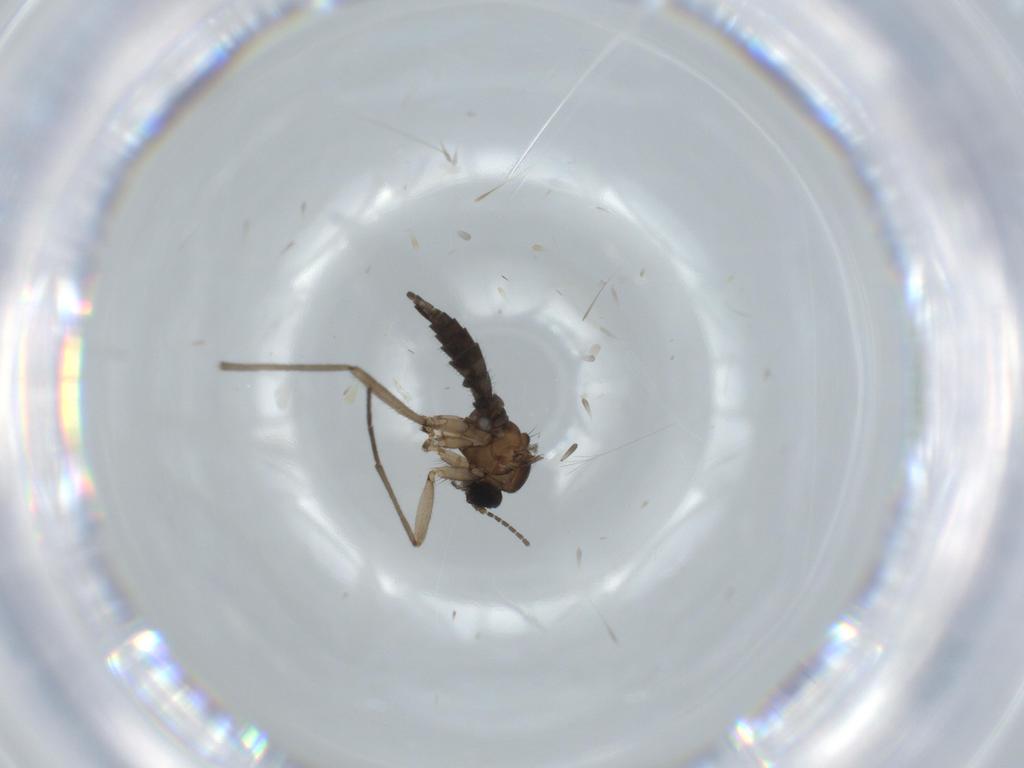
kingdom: Animalia
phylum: Arthropoda
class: Insecta
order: Diptera
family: Sciaridae
